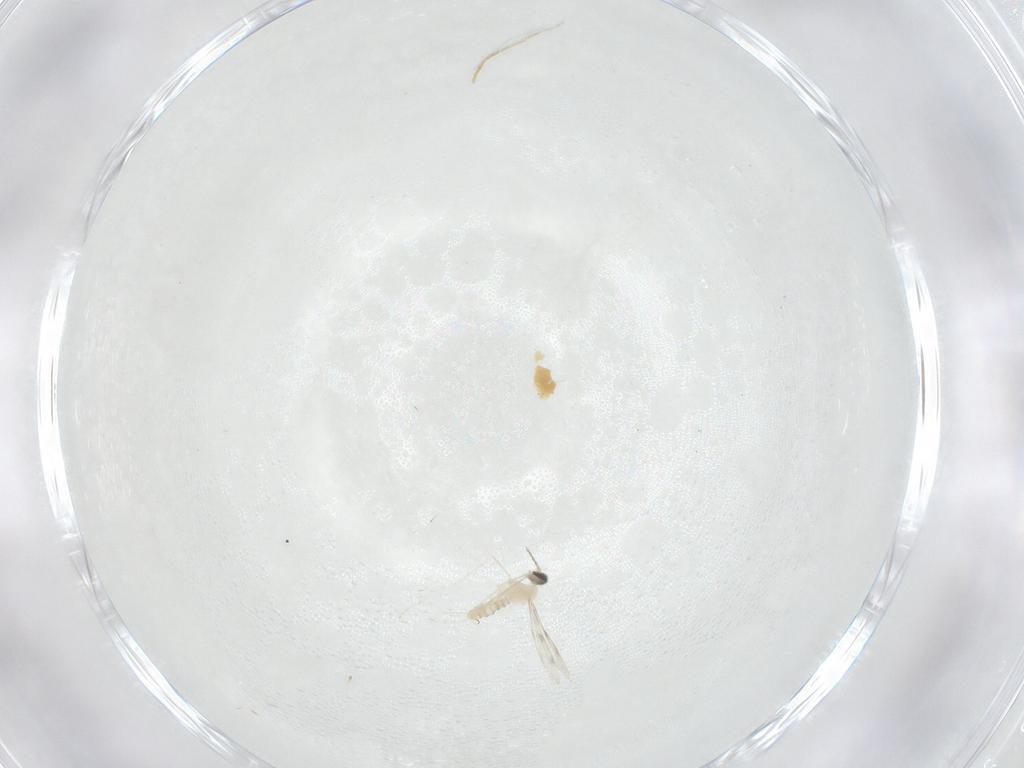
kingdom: Animalia
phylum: Arthropoda
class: Insecta
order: Diptera
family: Cecidomyiidae
